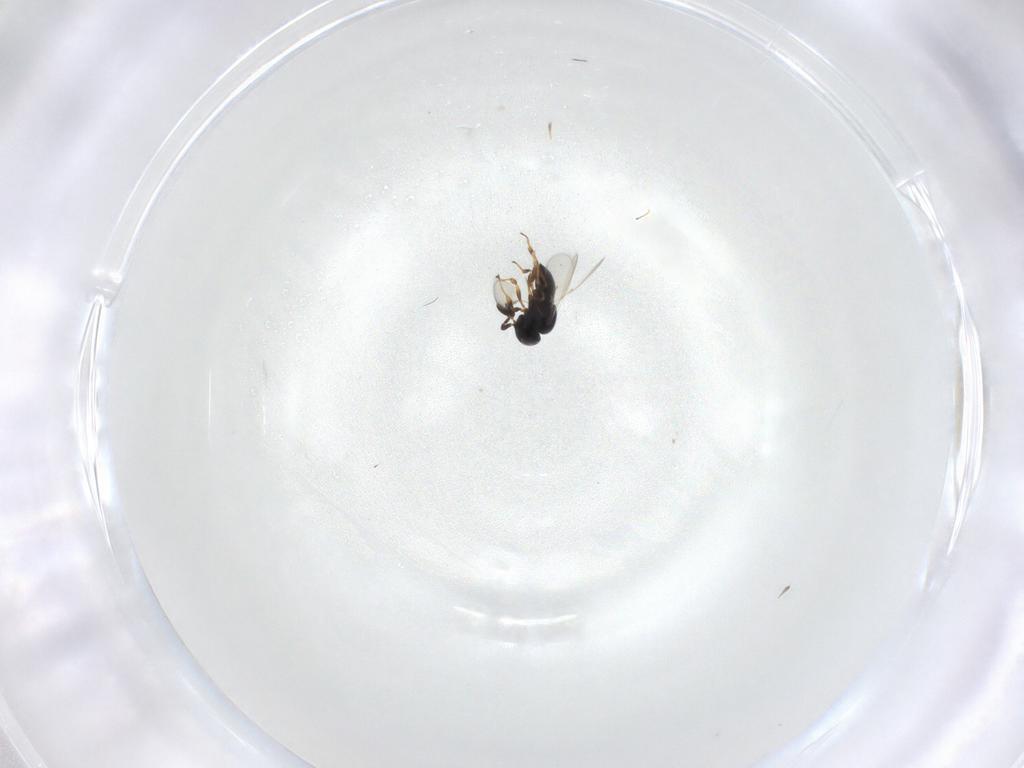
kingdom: Animalia
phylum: Arthropoda
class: Insecta
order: Hymenoptera
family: Scelionidae
